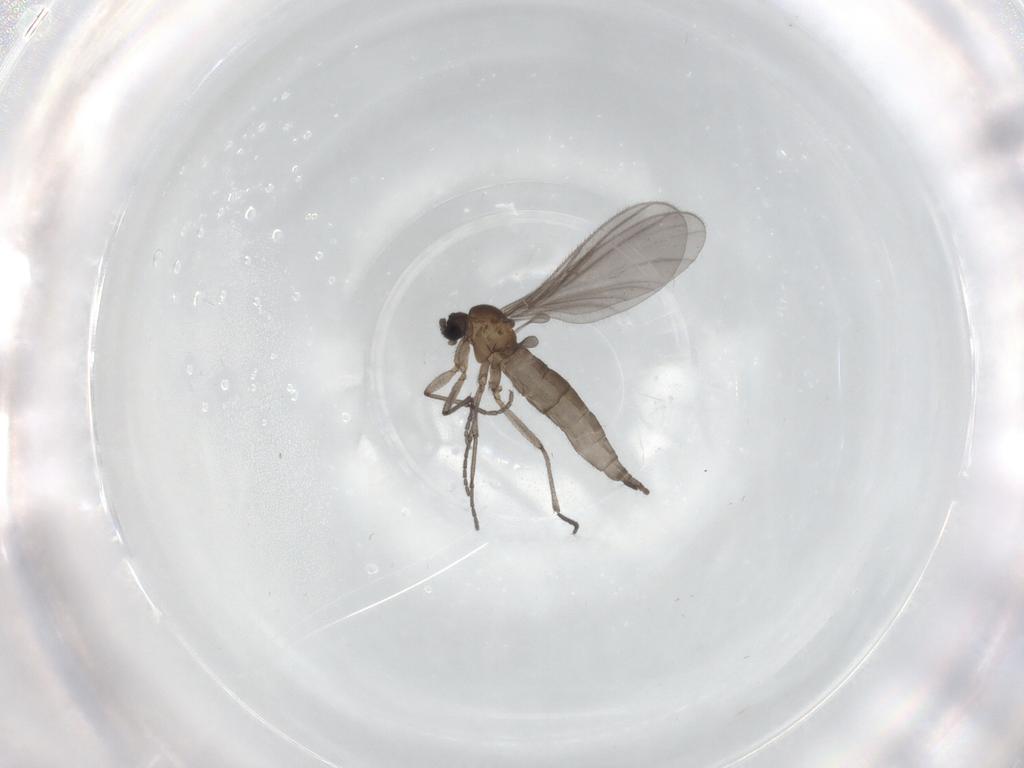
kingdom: Animalia
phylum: Arthropoda
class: Insecta
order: Diptera
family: Sciaridae
